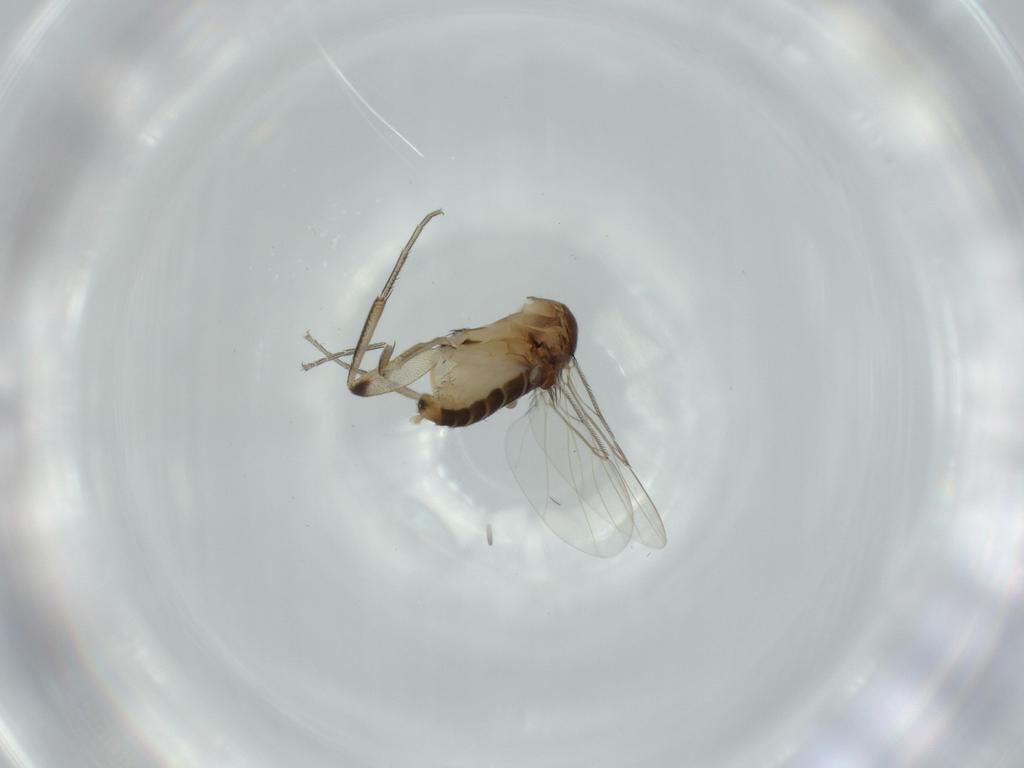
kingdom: Animalia
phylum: Arthropoda
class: Insecta
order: Diptera
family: Phoridae
